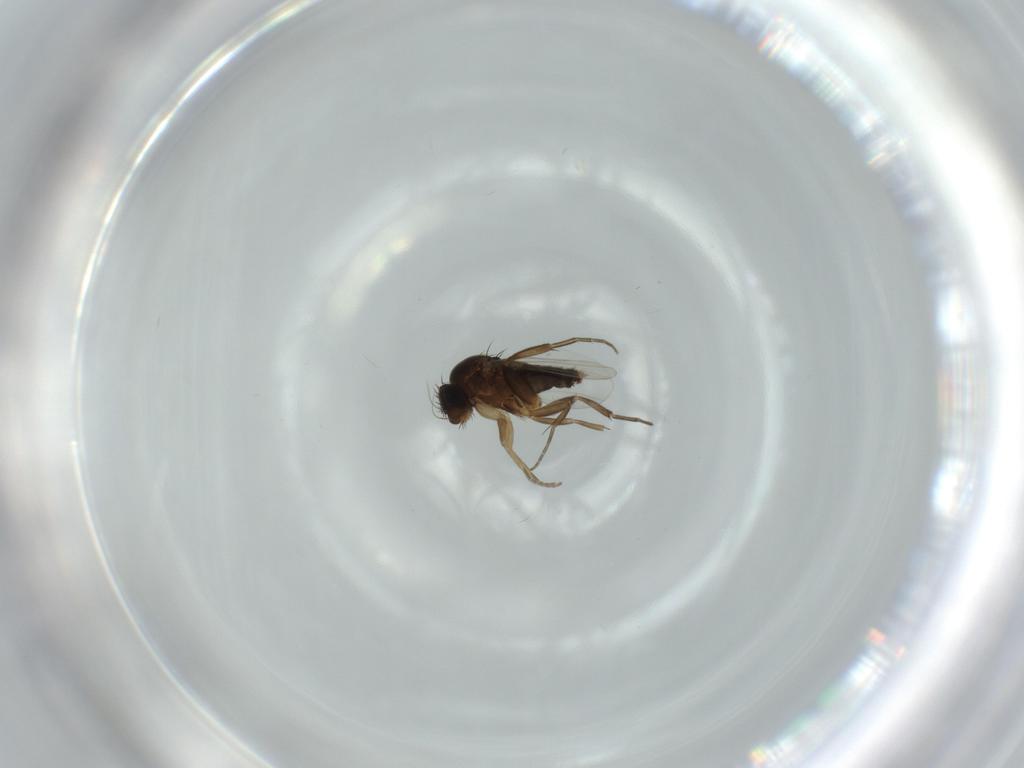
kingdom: Animalia
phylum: Arthropoda
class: Insecta
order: Diptera
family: Phoridae
